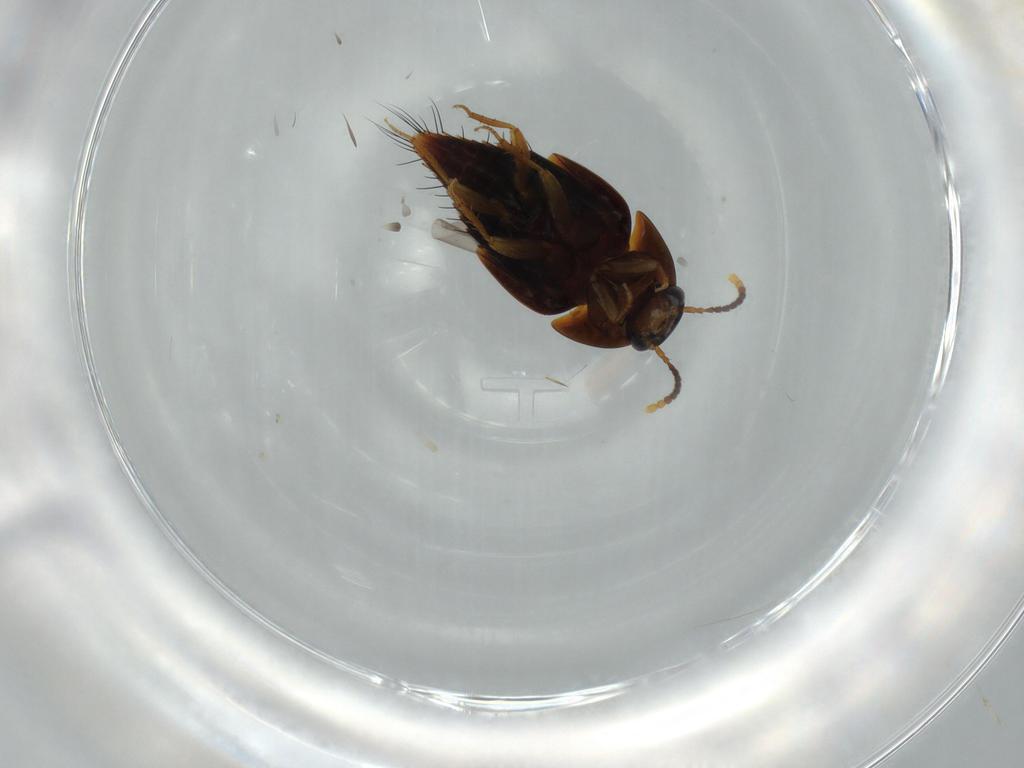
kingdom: Animalia
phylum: Arthropoda
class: Insecta
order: Coleoptera
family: Staphylinidae
